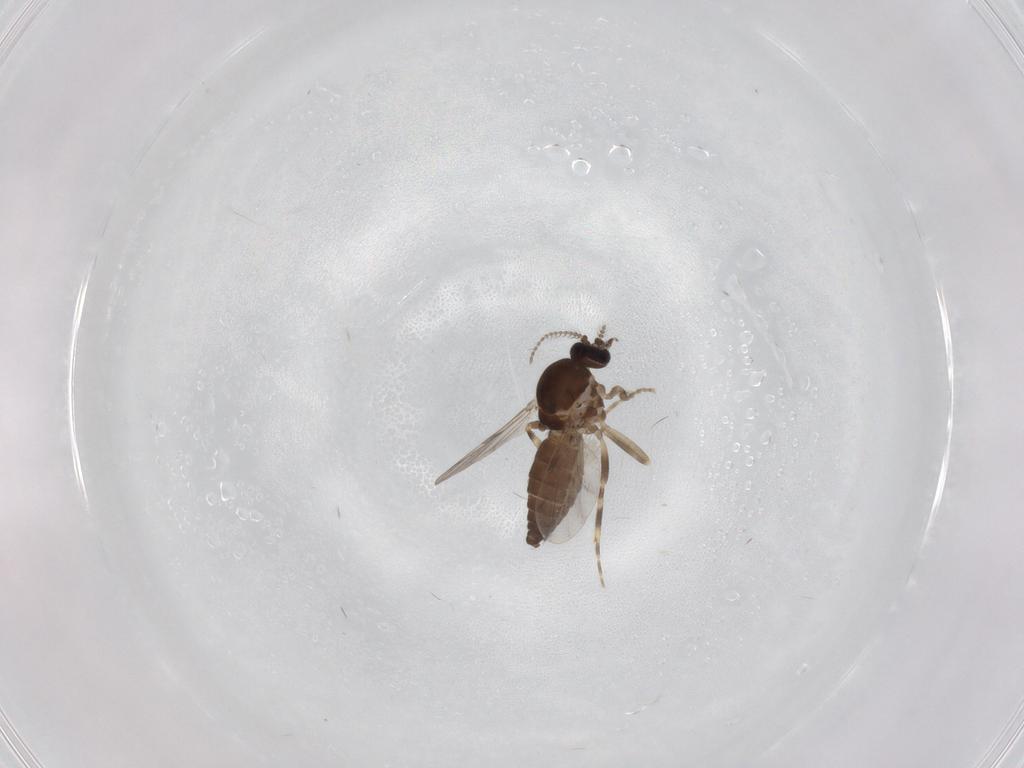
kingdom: Animalia
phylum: Arthropoda
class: Insecta
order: Diptera
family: Ceratopogonidae
